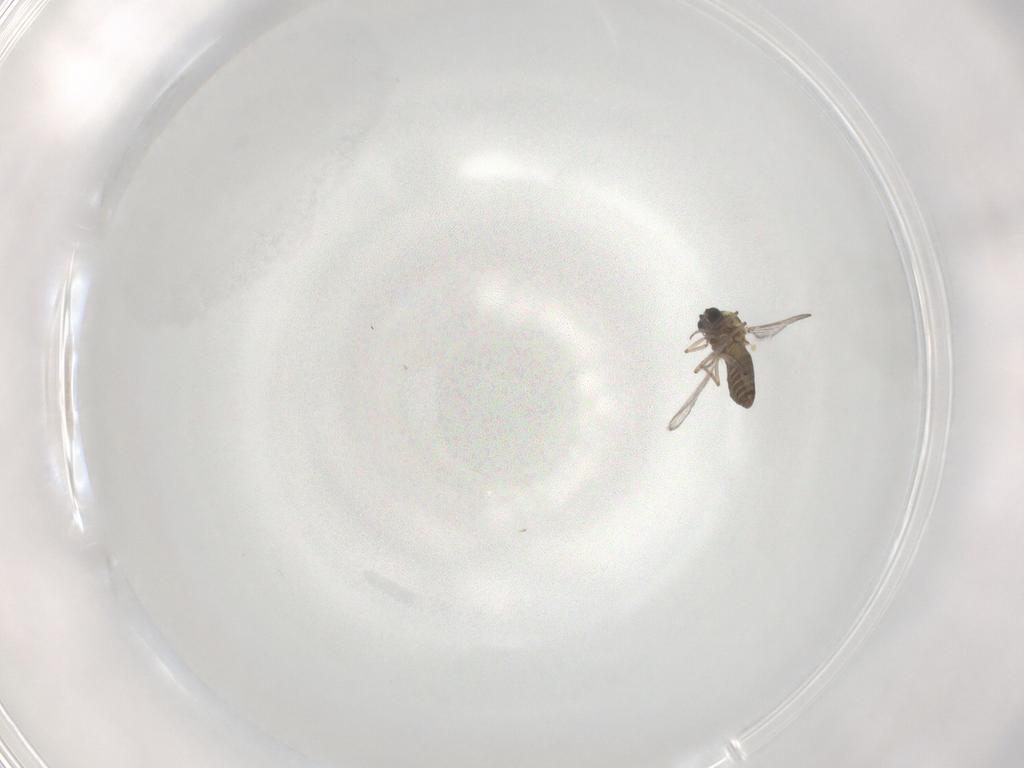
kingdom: Animalia
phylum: Arthropoda
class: Insecta
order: Diptera
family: Ceratopogonidae
